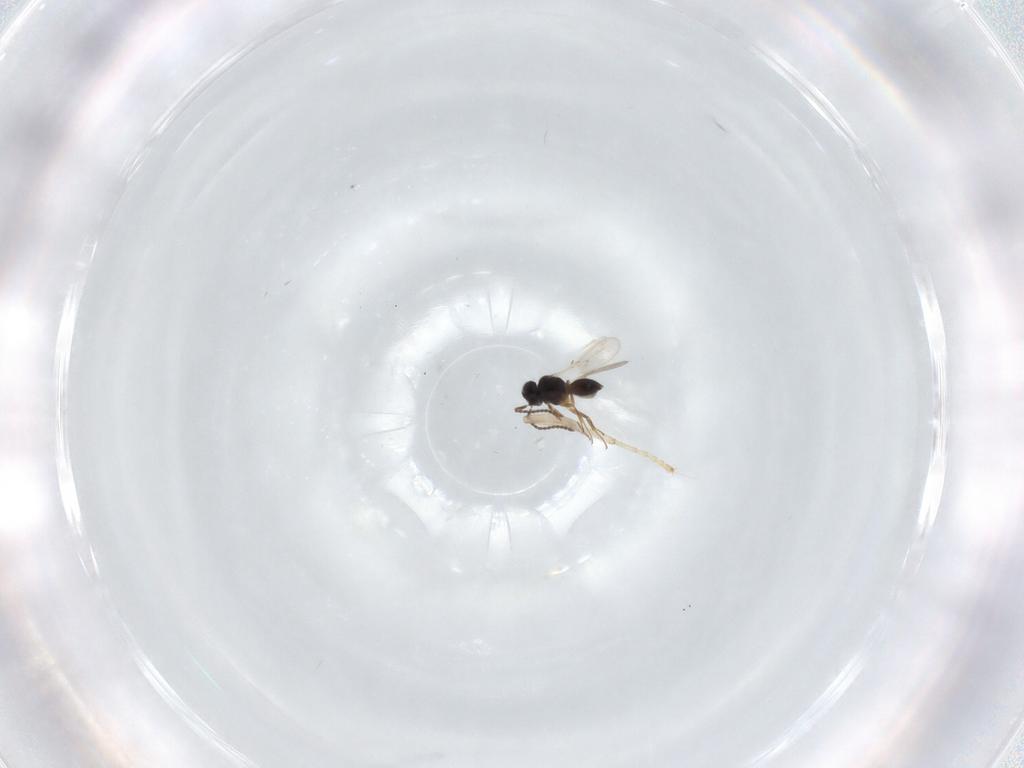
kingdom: Animalia
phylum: Arthropoda
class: Insecta
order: Hymenoptera
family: Scelionidae
